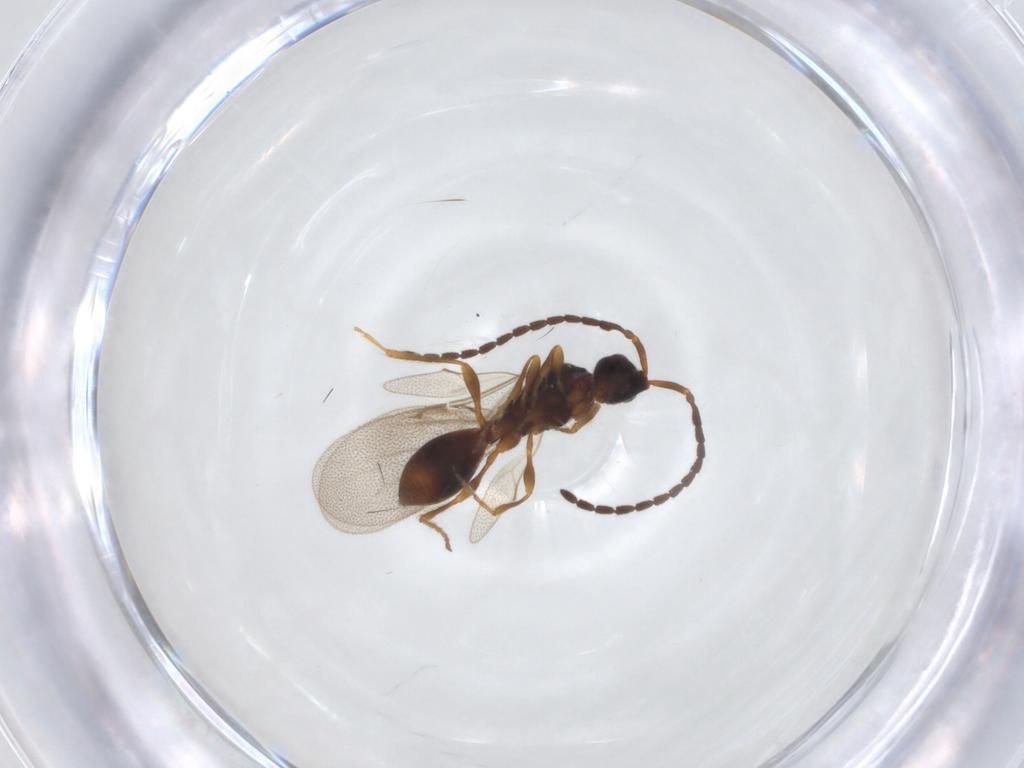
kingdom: Animalia
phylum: Arthropoda
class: Insecta
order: Hymenoptera
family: Diapriidae
